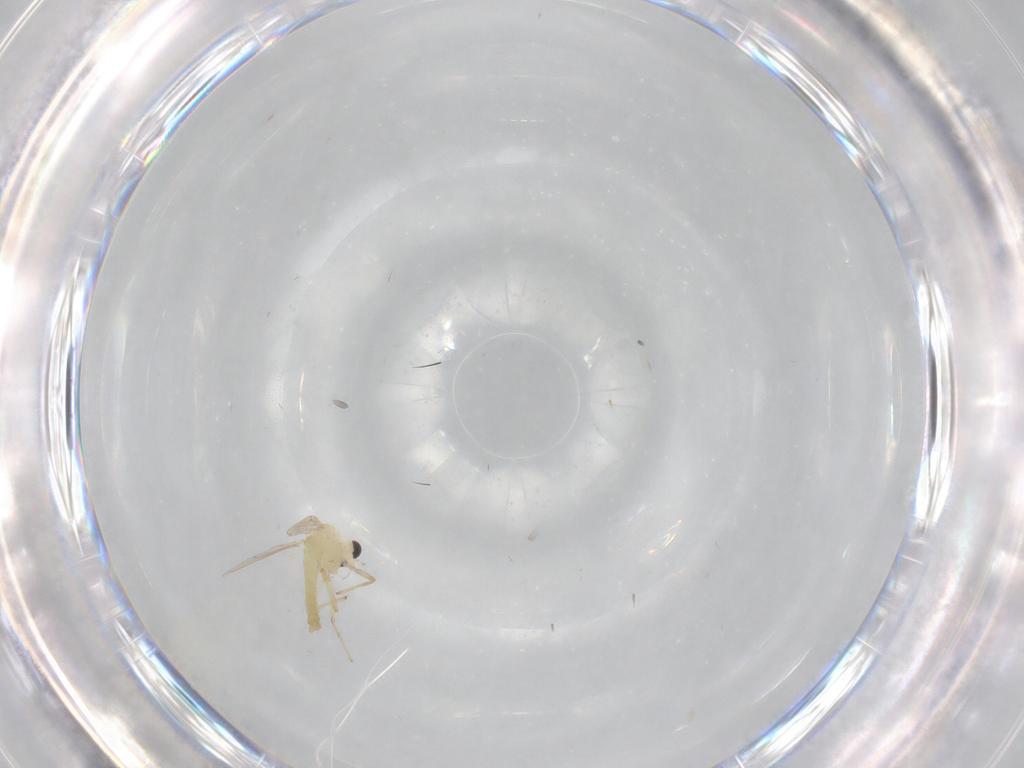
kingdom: Animalia
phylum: Arthropoda
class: Insecta
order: Diptera
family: Chironomidae
